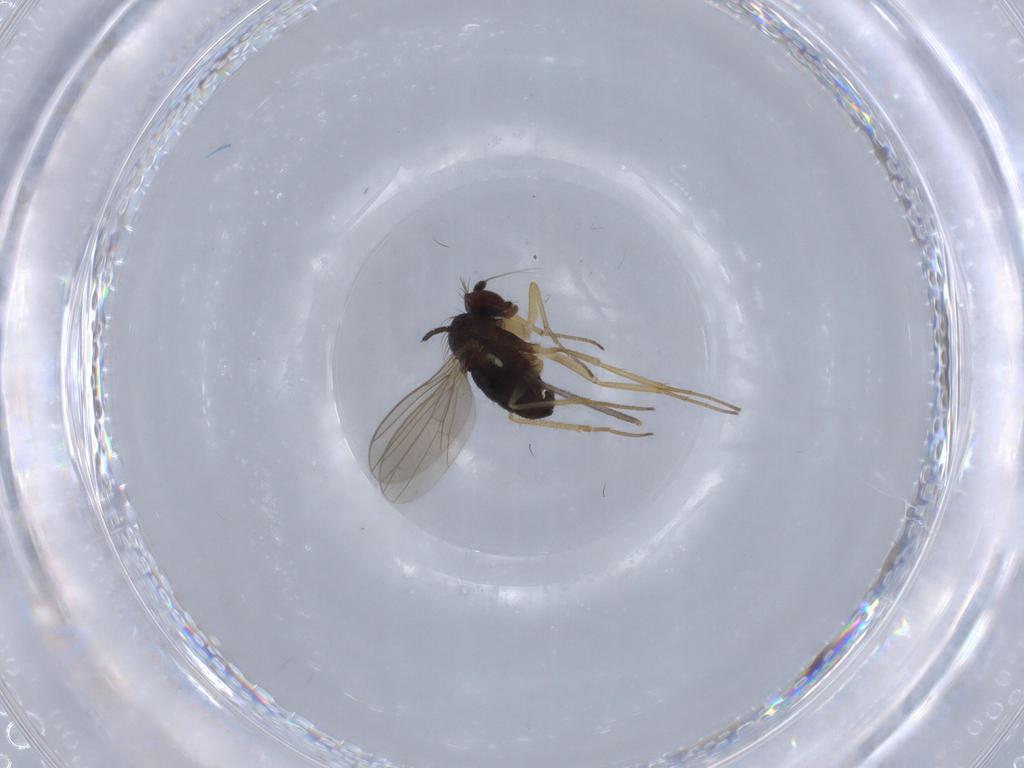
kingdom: Animalia
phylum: Arthropoda
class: Insecta
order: Diptera
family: Dolichopodidae
